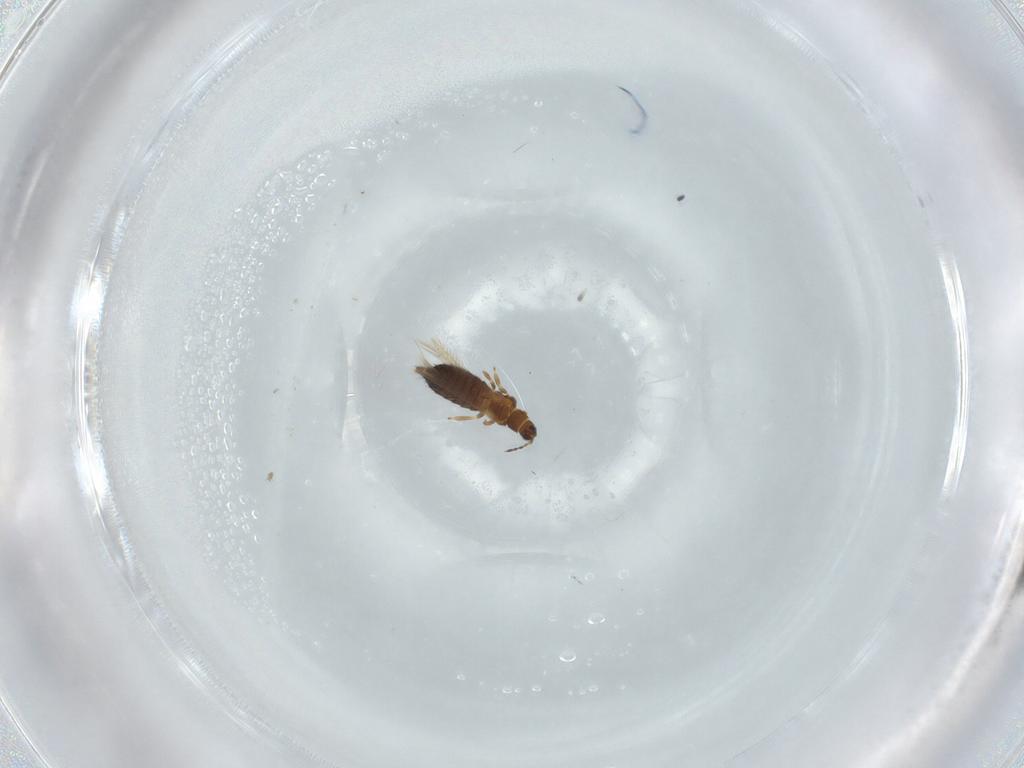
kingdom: Animalia
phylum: Arthropoda
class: Insecta
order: Thysanoptera
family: Thripidae
